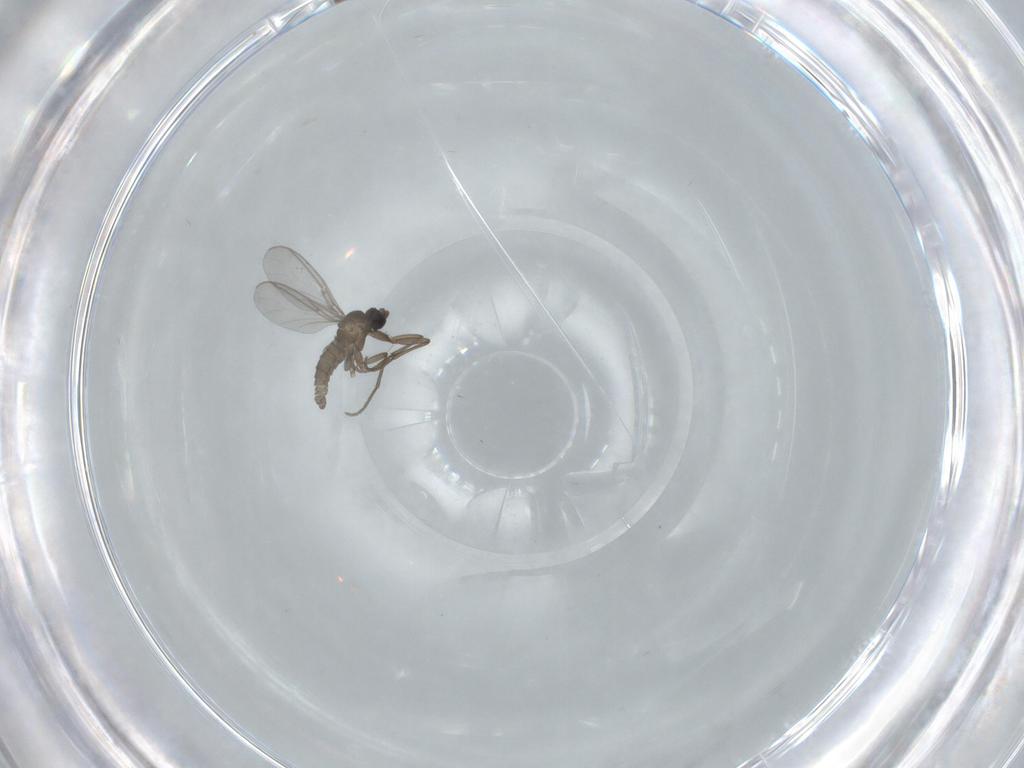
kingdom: Animalia
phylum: Arthropoda
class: Insecta
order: Diptera
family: Sciaridae
